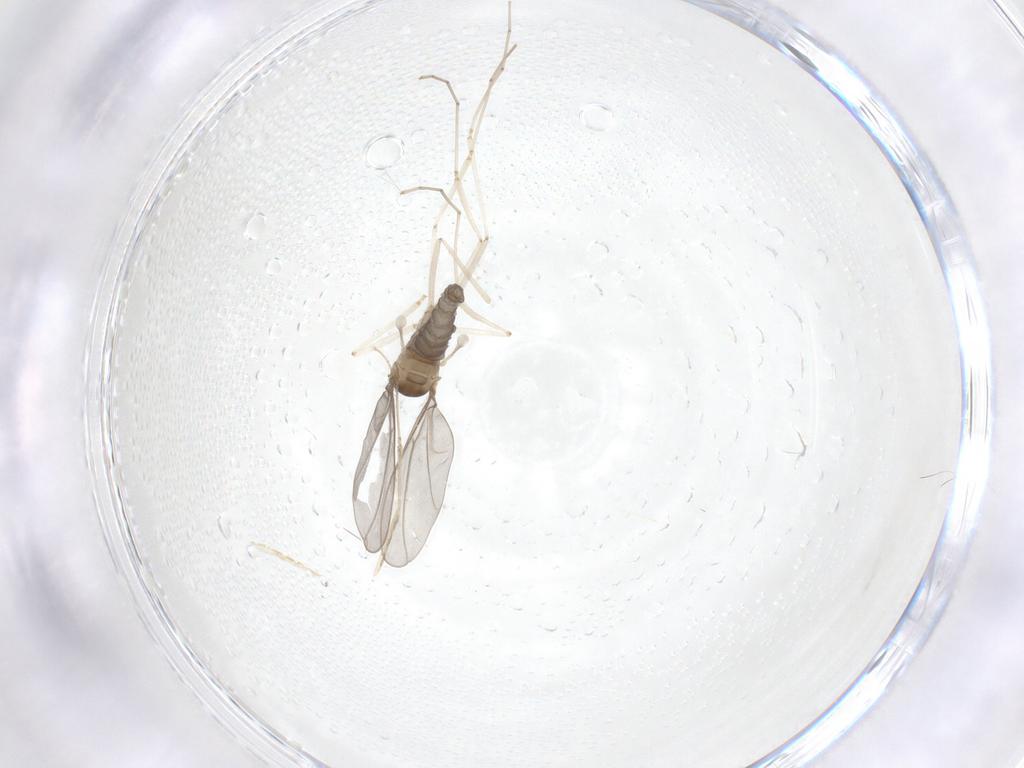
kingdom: Animalia
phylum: Arthropoda
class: Insecta
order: Diptera
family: Cecidomyiidae
